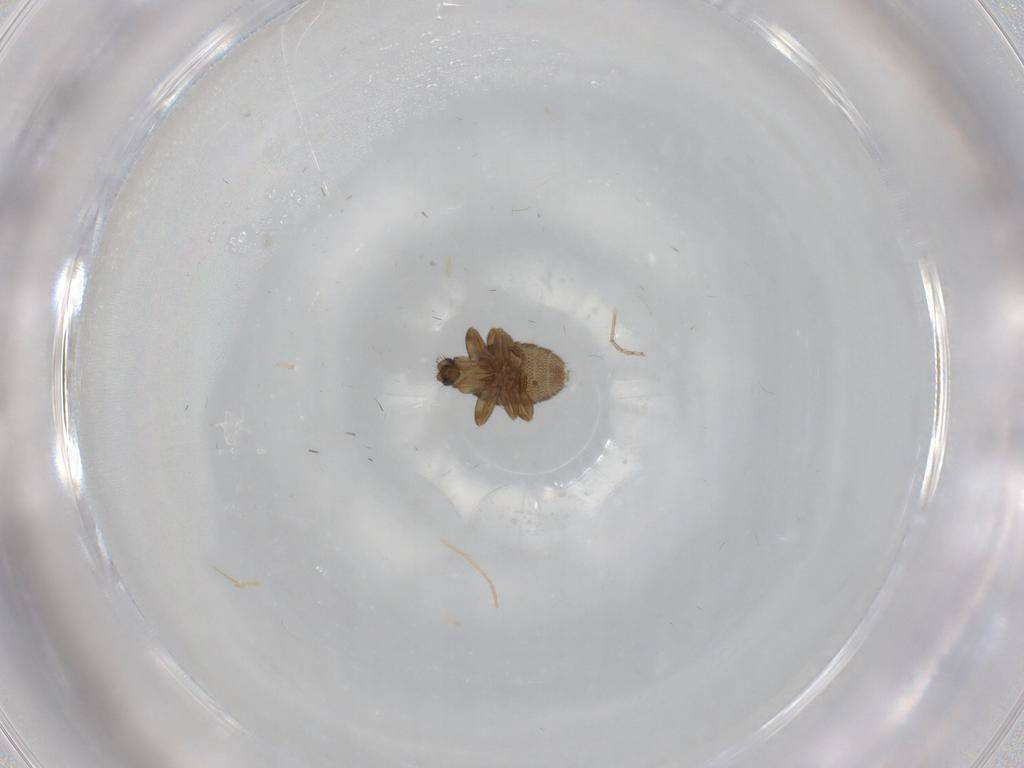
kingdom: Animalia
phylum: Arthropoda
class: Insecta
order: Diptera
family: Phoridae
